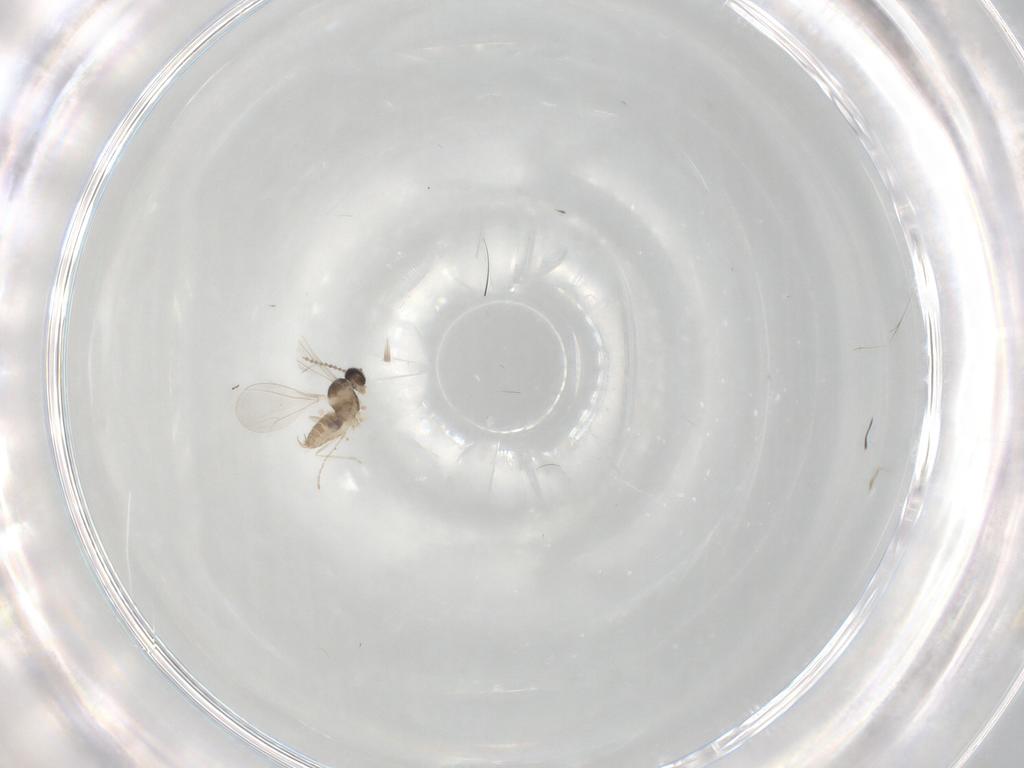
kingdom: Animalia
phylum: Arthropoda
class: Insecta
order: Diptera
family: Cecidomyiidae
